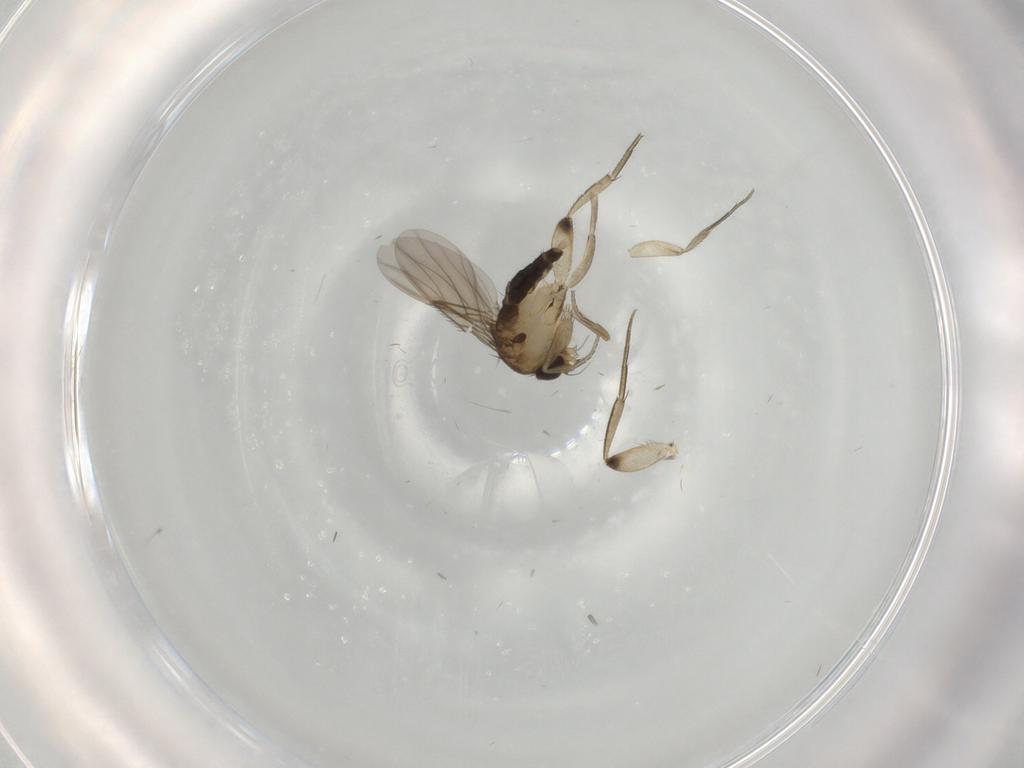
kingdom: Animalia
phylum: Arthropoda
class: Insecta
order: Diptera
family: Phoridae
